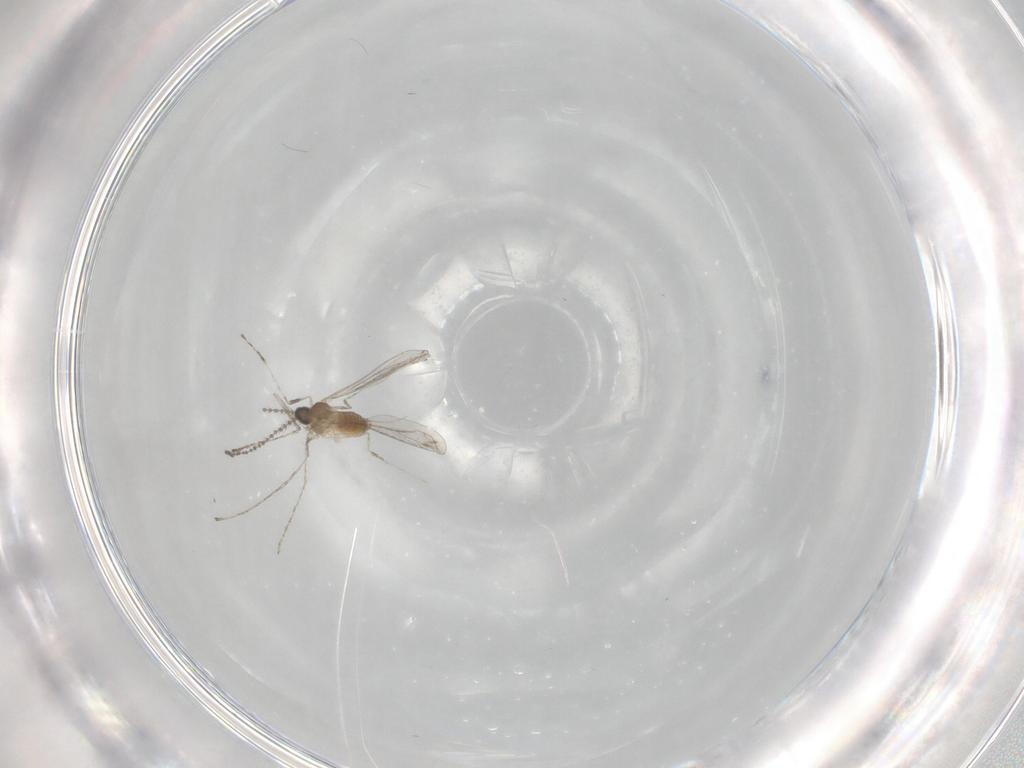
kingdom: Animalia
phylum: Arthropoda
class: Insecta
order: Diptera
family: Cecidomyiidae
